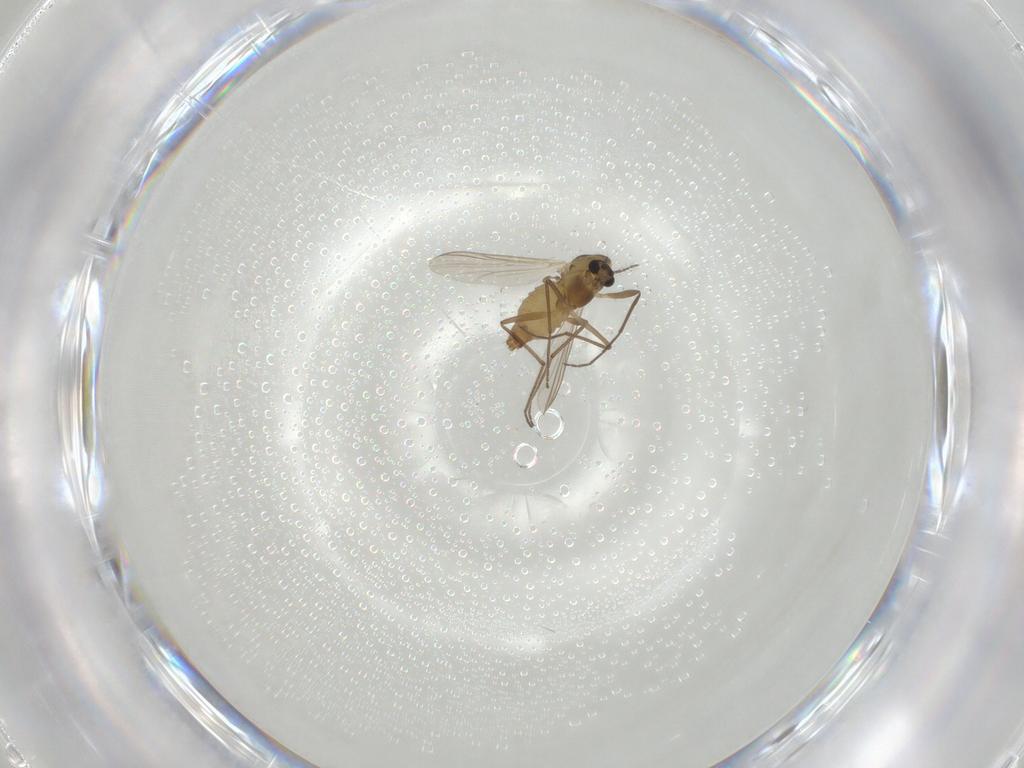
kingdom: Animalia
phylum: Arthropoda
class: Insecta
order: Diptera
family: Chironomidae
